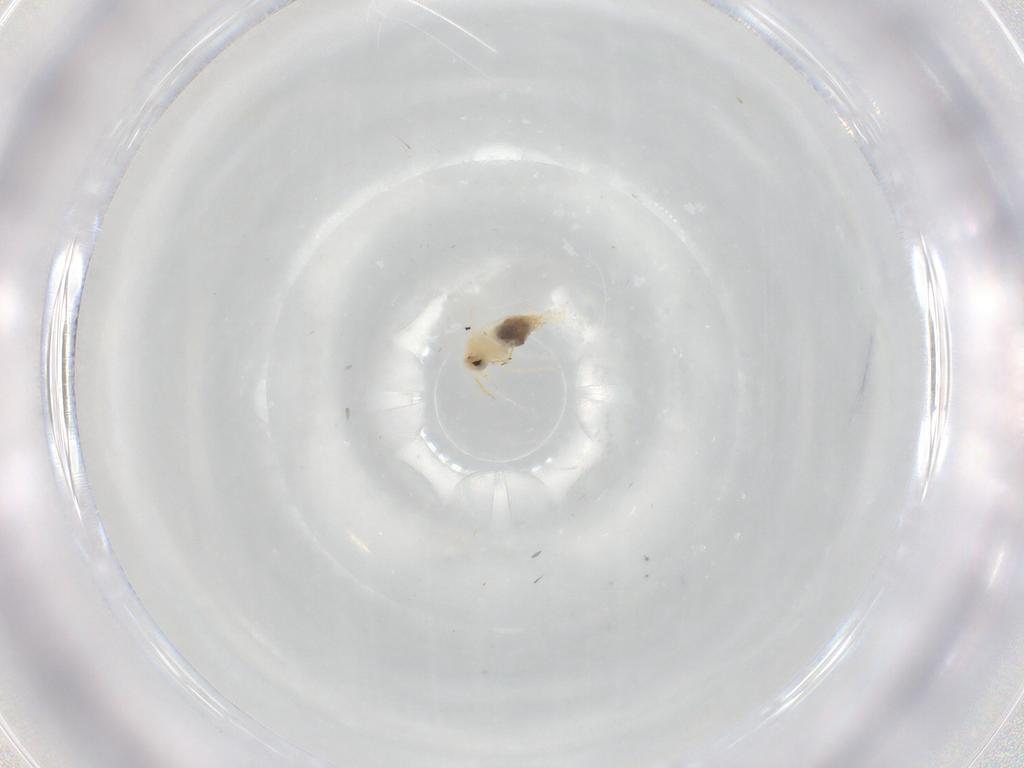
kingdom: Animalia
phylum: Arthropoda
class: Insecta
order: Hemiptera
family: Aleyrodidae
